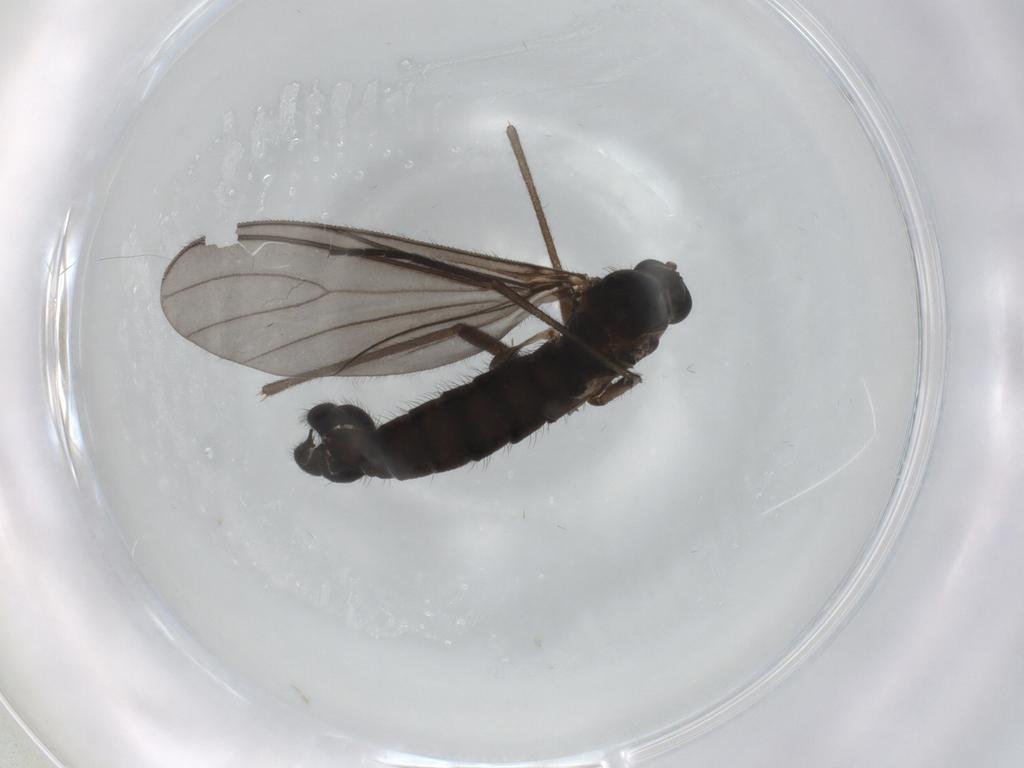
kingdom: Animalia
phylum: Arthropoda
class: Insecta
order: Diptera
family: Sciaridae
